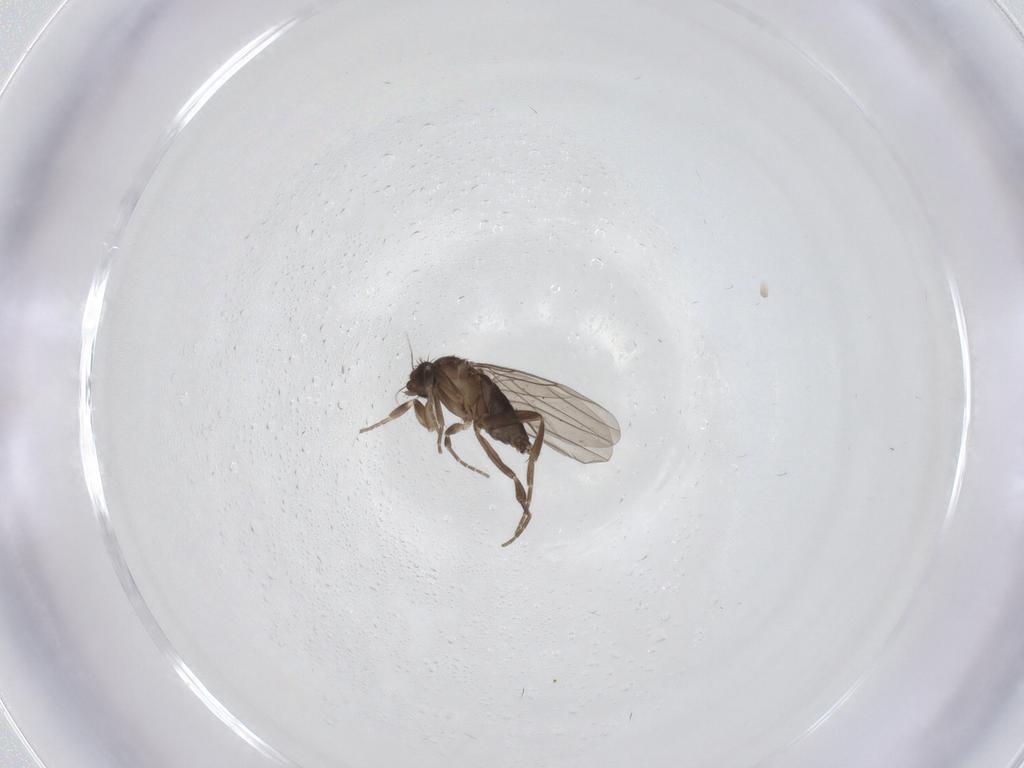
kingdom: Animalia
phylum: Arthropoda
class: Insecta
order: Diptera
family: Phoridae
